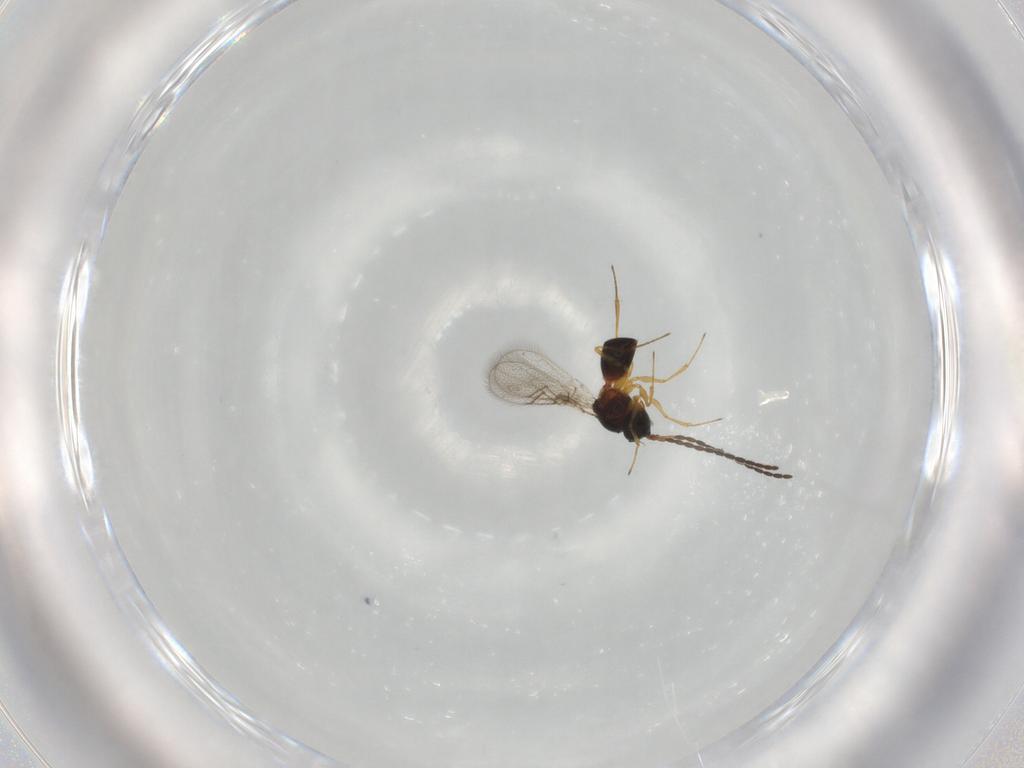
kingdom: Animalia
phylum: Arthropoda
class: Insecta
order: Hymenoptera
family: Figitidae
